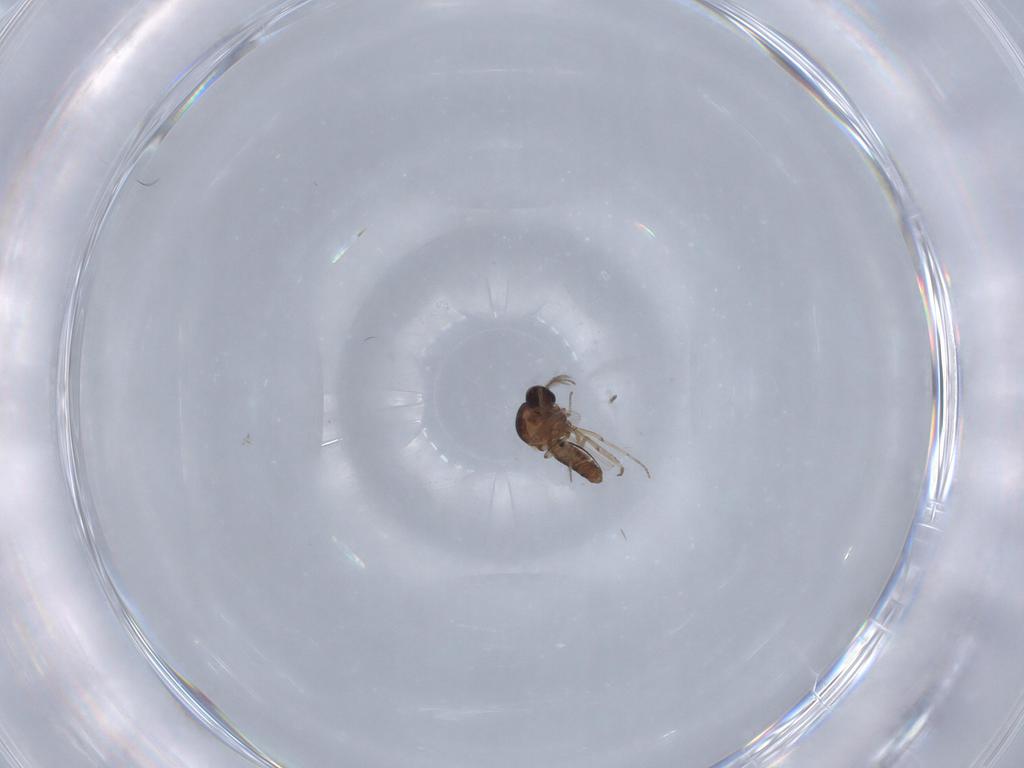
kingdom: Animalia
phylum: Arthropoda
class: Insecta
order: Diptera
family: Ceratopogonidae
